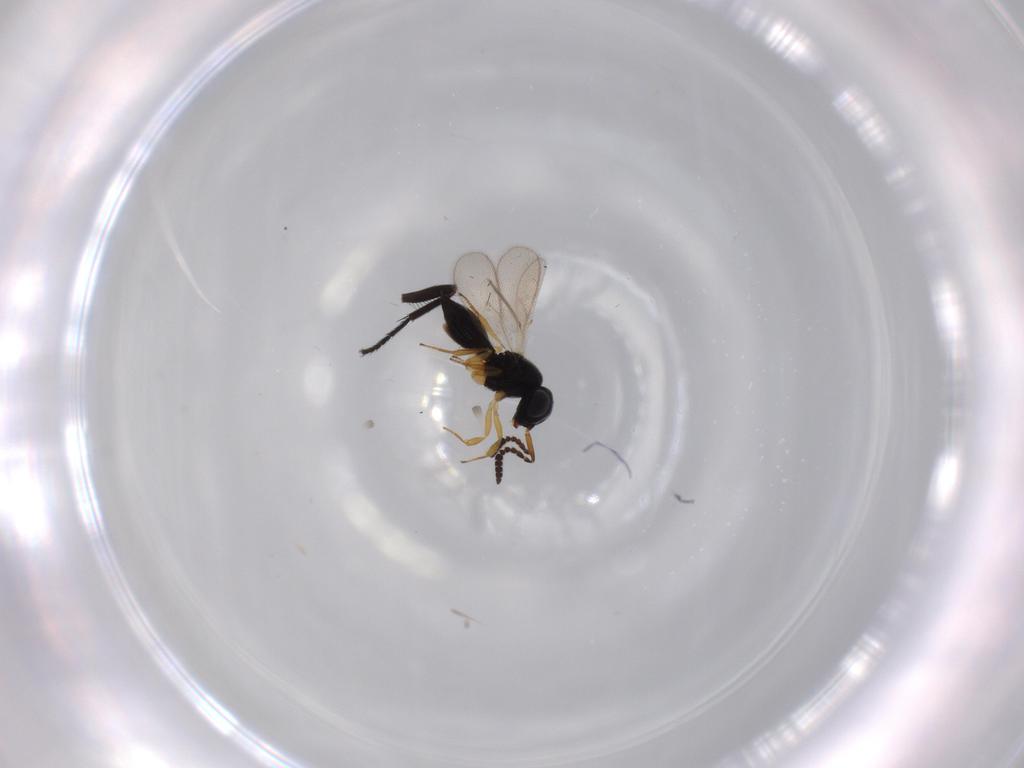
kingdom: Animalia
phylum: Arthropoda
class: Insecta
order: Hymenoptera
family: Scelionidae
